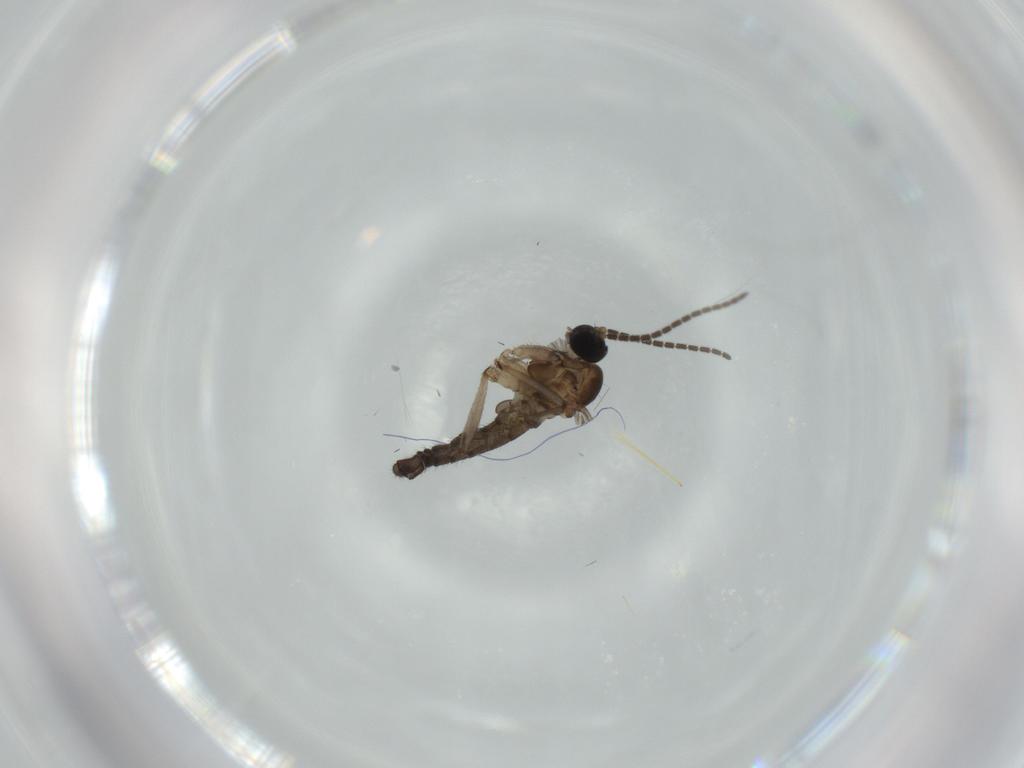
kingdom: Animalia
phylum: Arthropoda
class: Insecta
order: Diptera
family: Sciaridae
